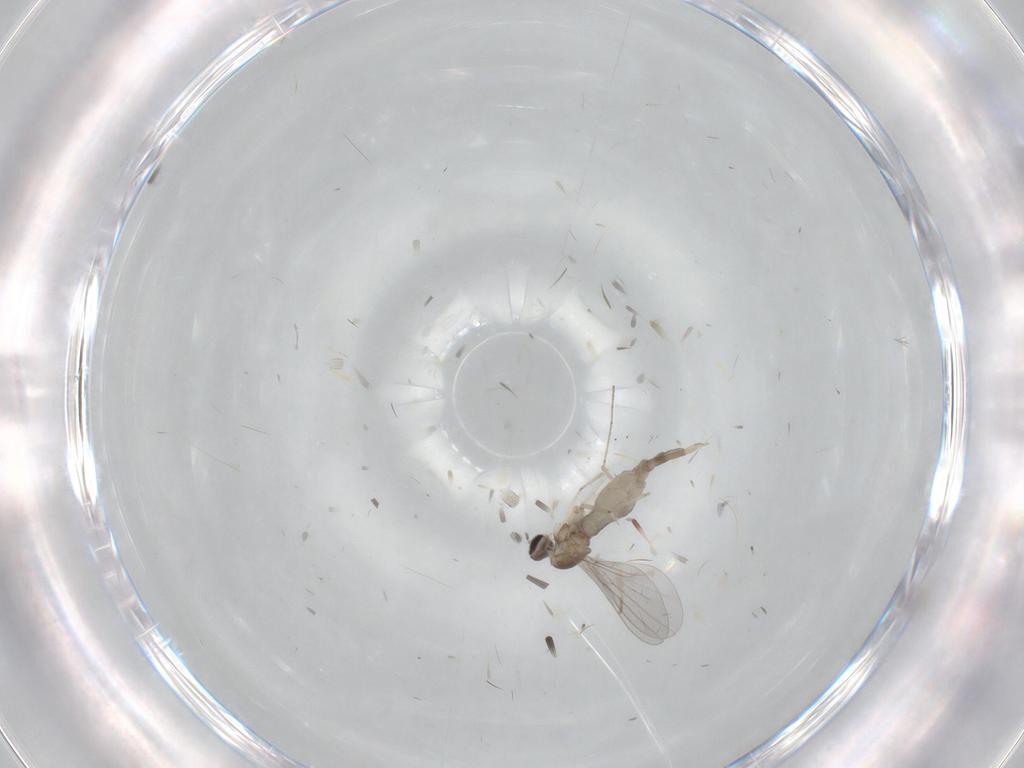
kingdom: Animalia
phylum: Arthropoda
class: Insecta
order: Diptera
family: Cecidomyiidae
